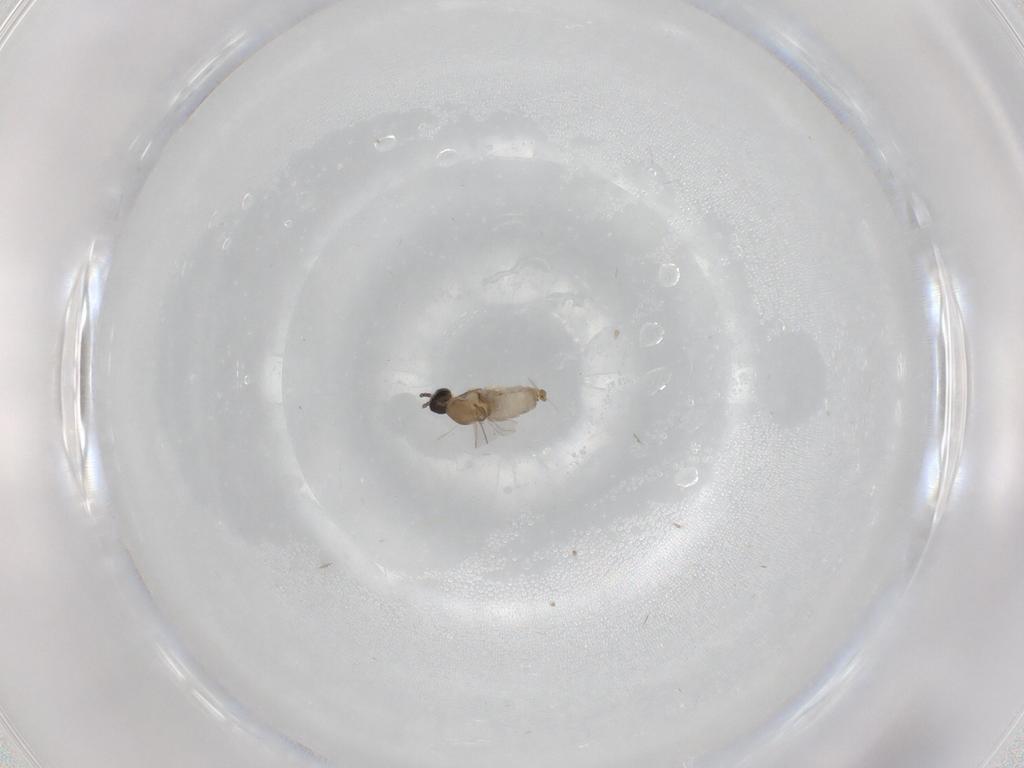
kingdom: Animalia
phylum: Arthropoda
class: Insecta
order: Diptera
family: Cecidomyiidae
